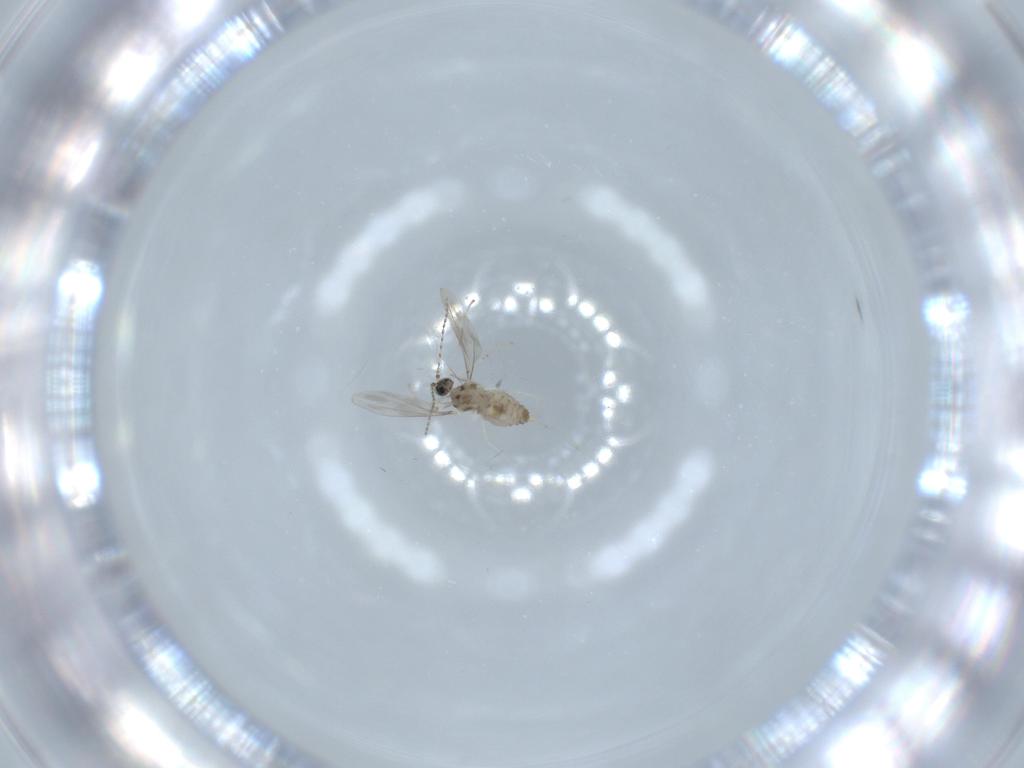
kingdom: Animalia
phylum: Arthropoda
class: Insecta
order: Diptera
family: Cecidomyiidae
